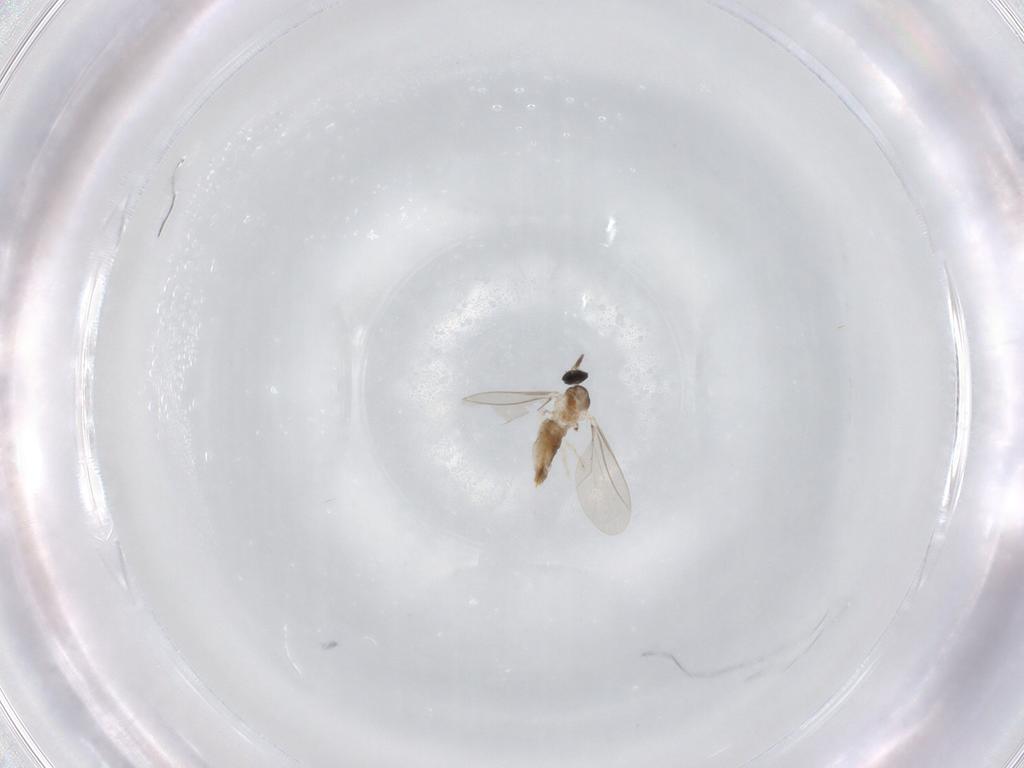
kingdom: Animalia
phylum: Arthropoda
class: Insecta
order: Diptera
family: Cecidomyiidae
